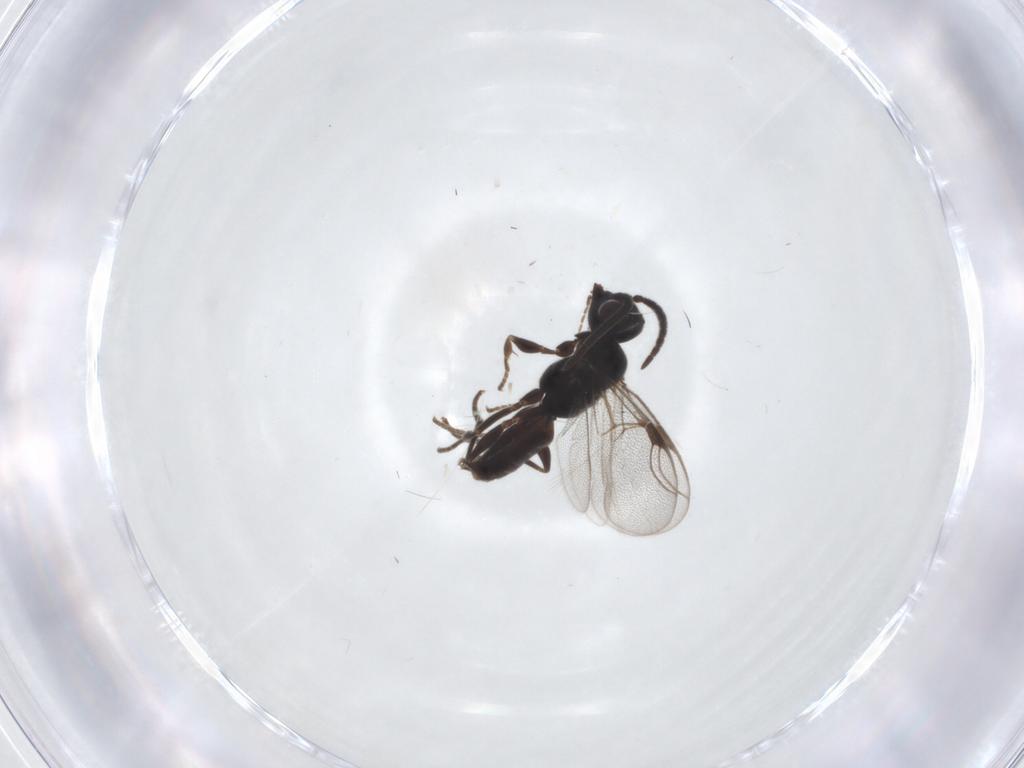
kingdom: Animalia
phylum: Arthropoda
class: Insecta
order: Hymenoptera
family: Dryinidae
